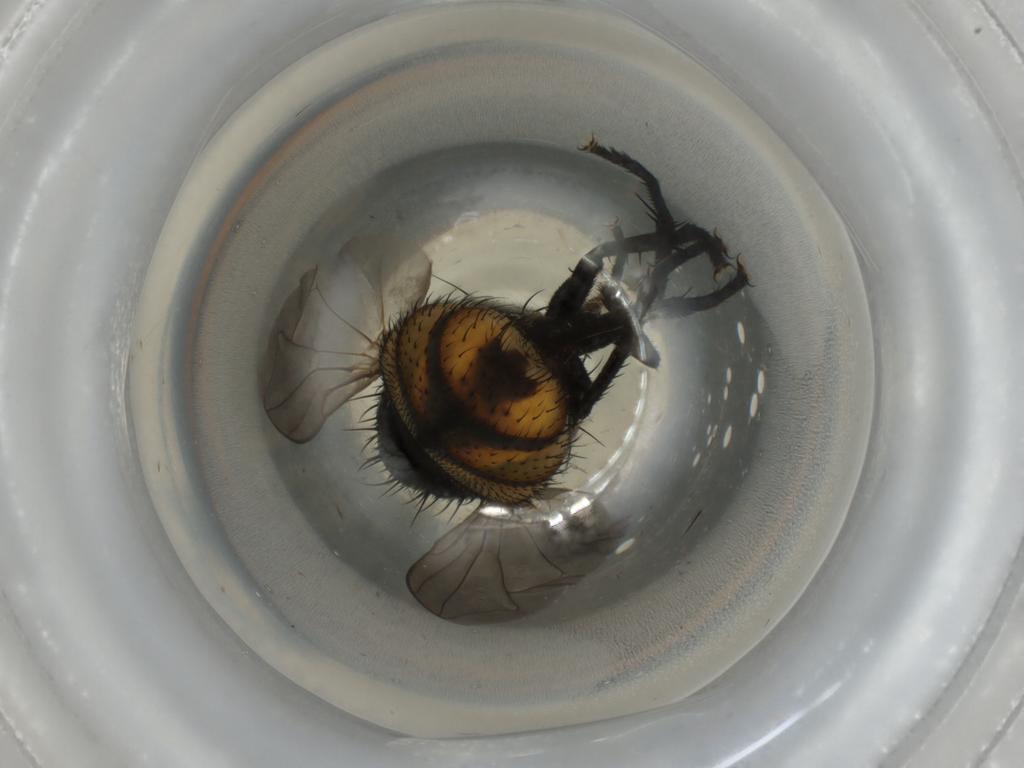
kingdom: Animalia
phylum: Arthropoda
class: Insecta
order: Diptera
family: Muscidae
